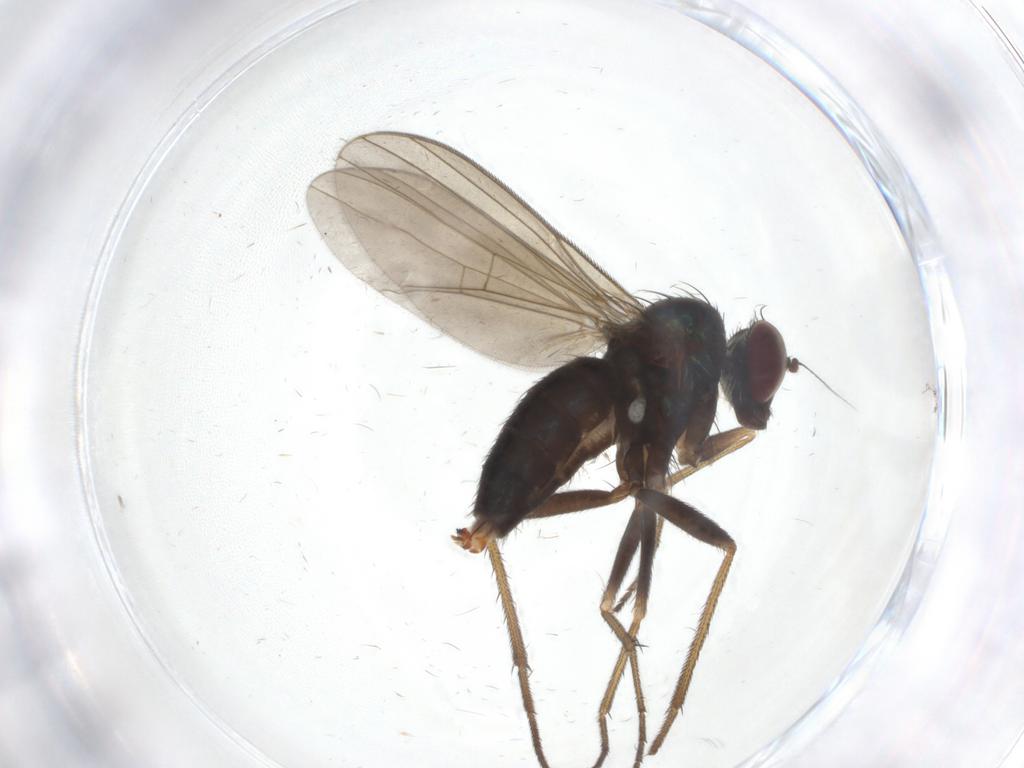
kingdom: Animalia
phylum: Arthropoda
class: Insecta
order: Diptera
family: Dolichopodidae
